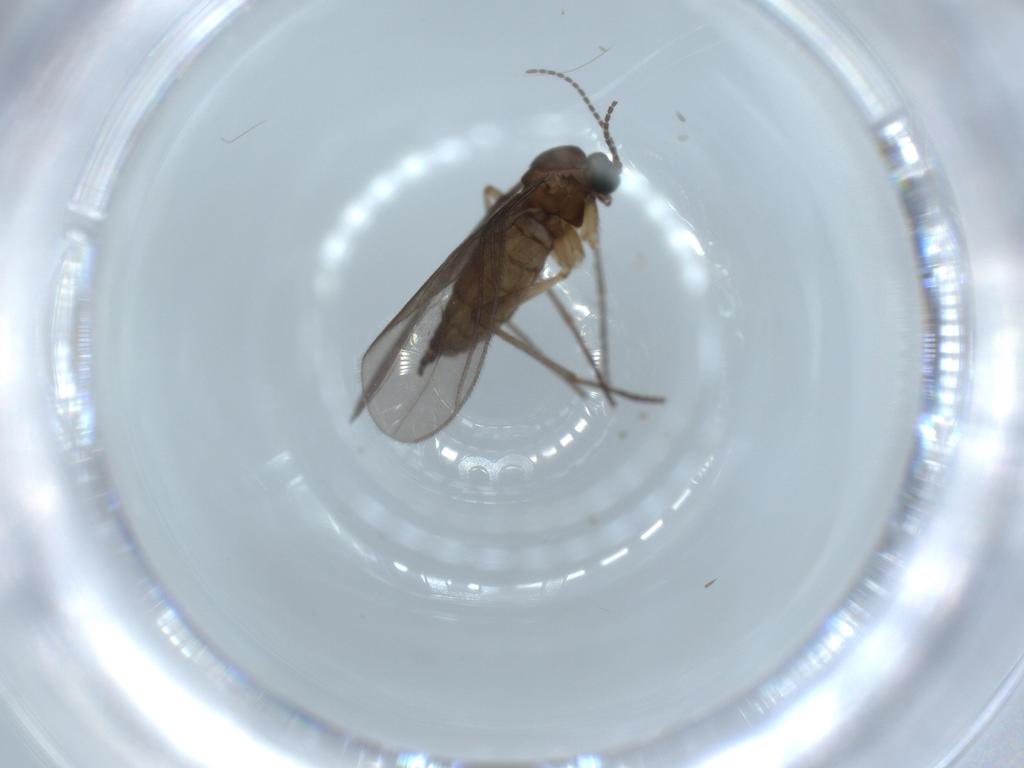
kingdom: Animalia
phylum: Arthropoda
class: Insecta
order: Diptera
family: Sciaridae
